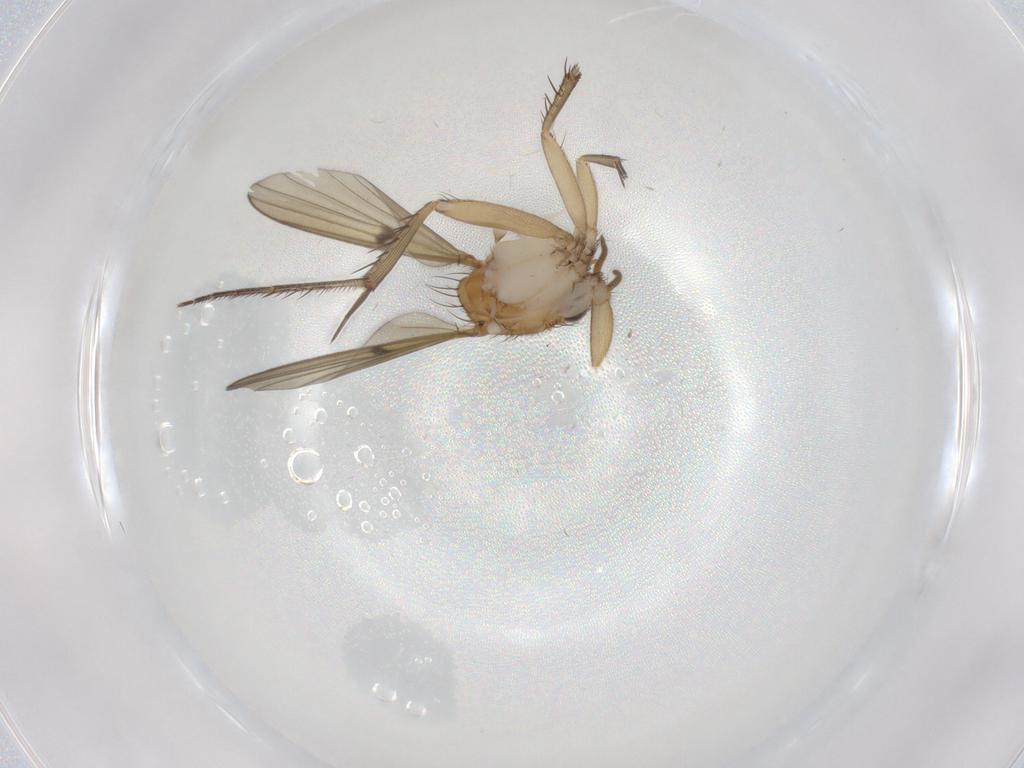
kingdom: Animalia
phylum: Arthropoda
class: Insecta
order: Diptera
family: Mycetophilidae
